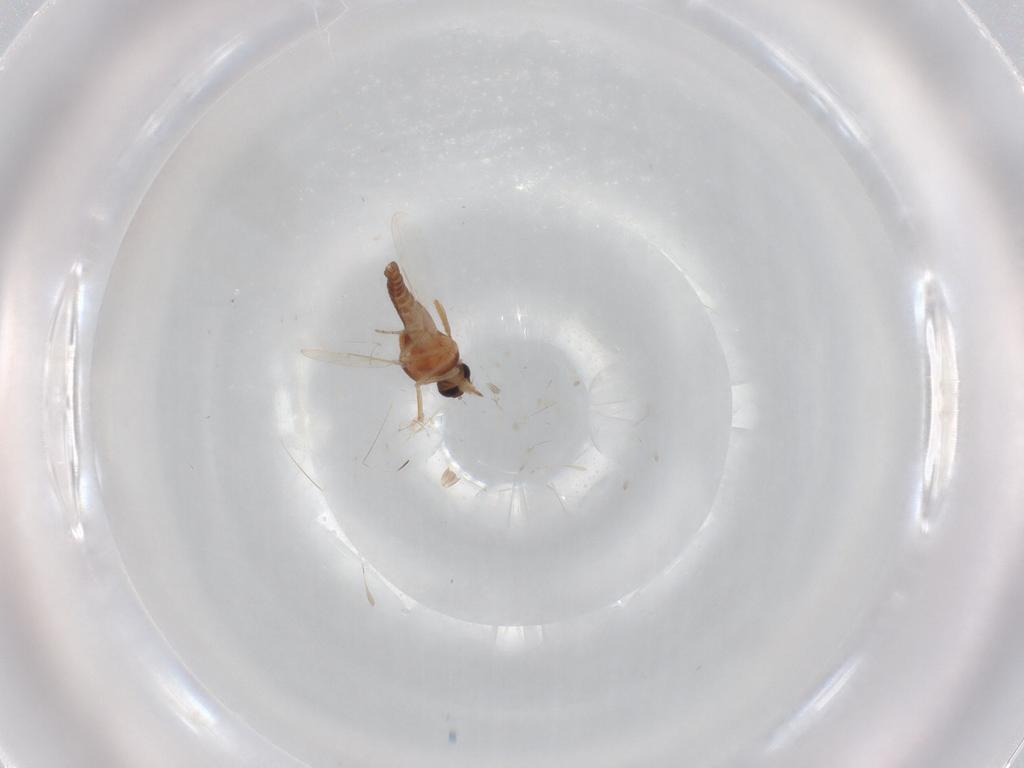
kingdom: Animalia
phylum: Arthropoda
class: Insecta
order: Diptera
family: Ceratopogonidae
